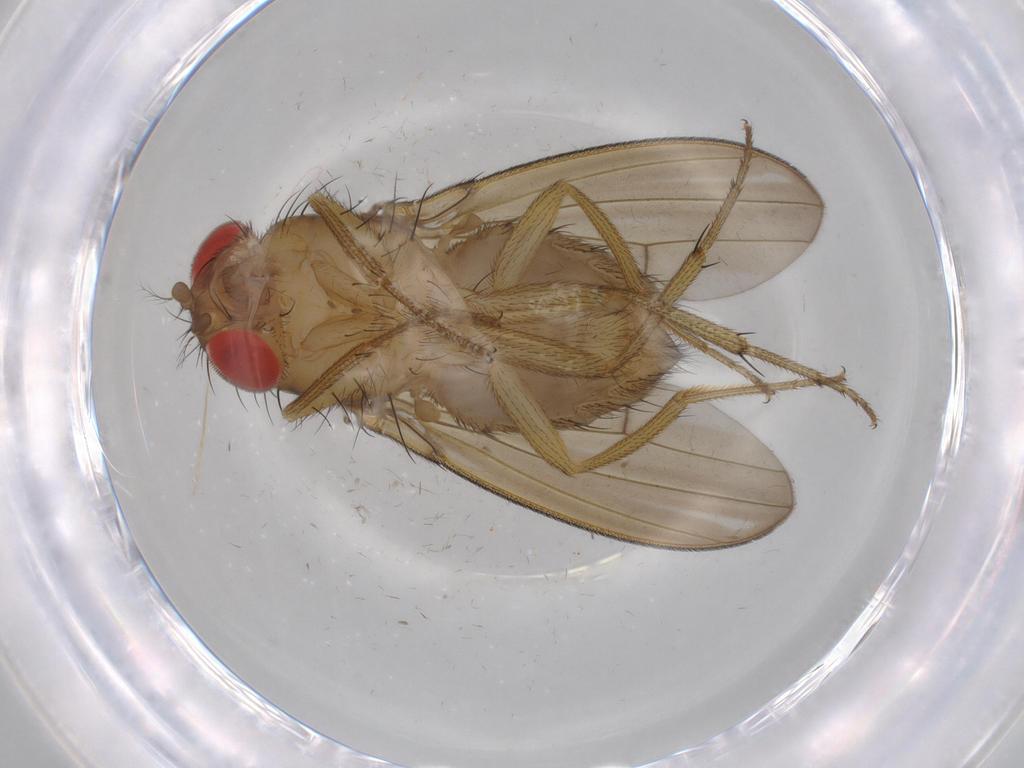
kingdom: Animalia
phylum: Arthropoda
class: Insecta
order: Diptera
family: Drosophilidae
